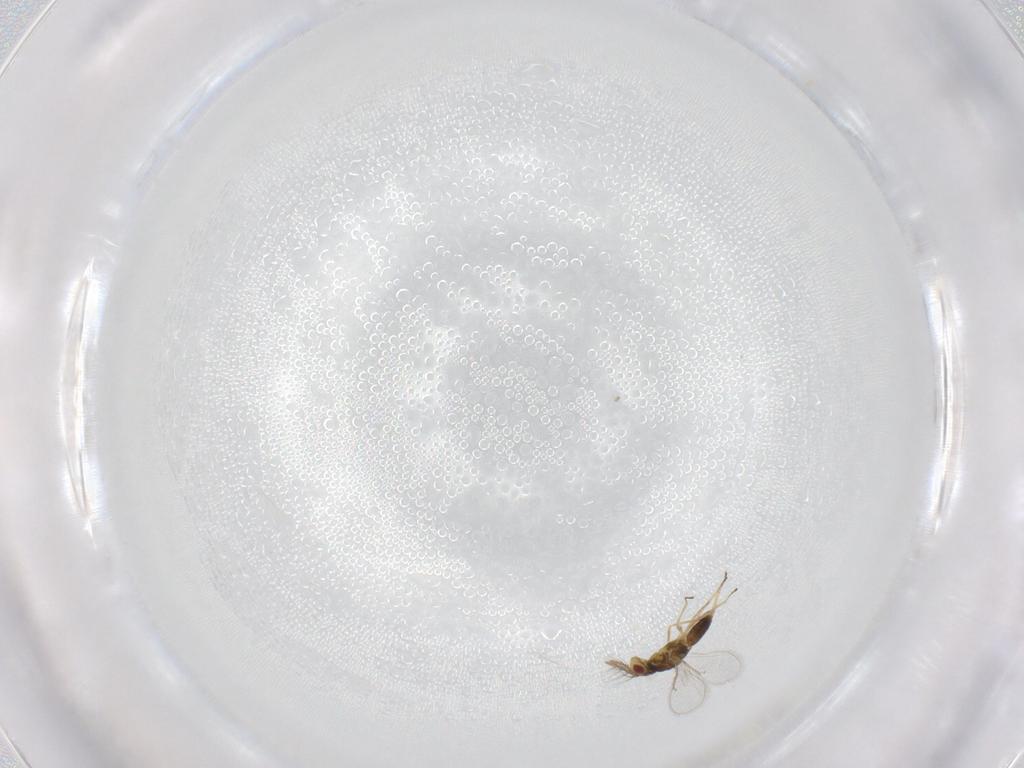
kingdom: Animalia
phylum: Arthropoda
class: Insecta
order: Hymenoptera
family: Eulophidae
